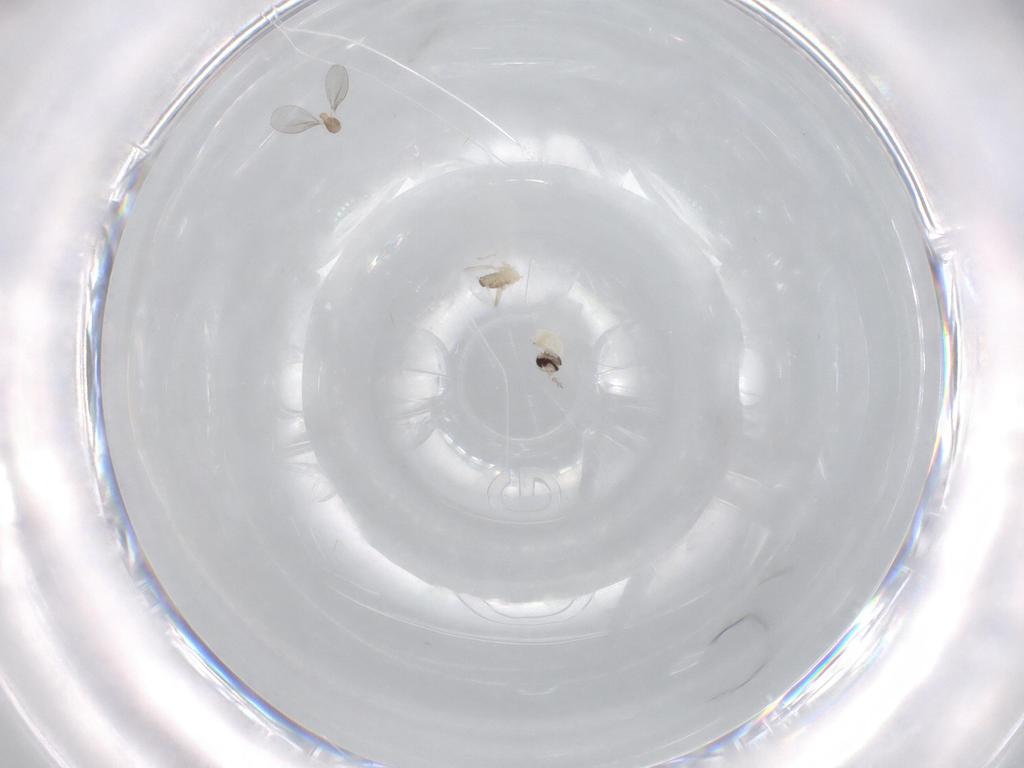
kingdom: Animalia
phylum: Arthropoda
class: Insecta
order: Diptera
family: Cecidomyiidae
